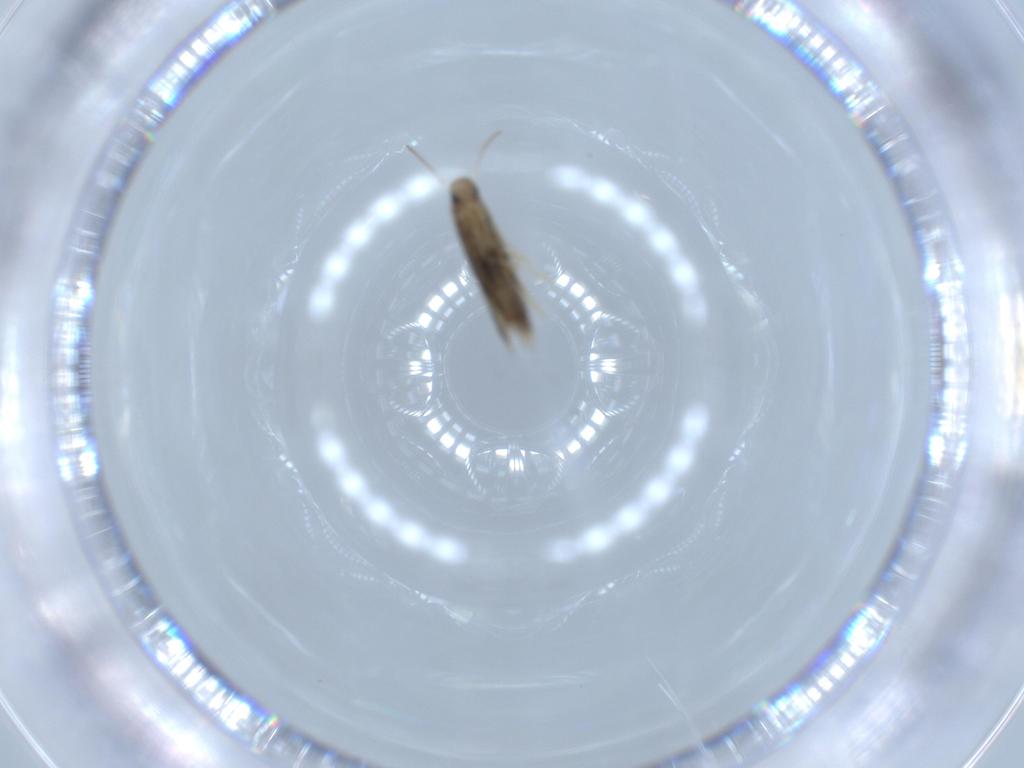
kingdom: Animalia
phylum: Arthropoda
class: Insecta
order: Lepidoptera
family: Heliozelidae
